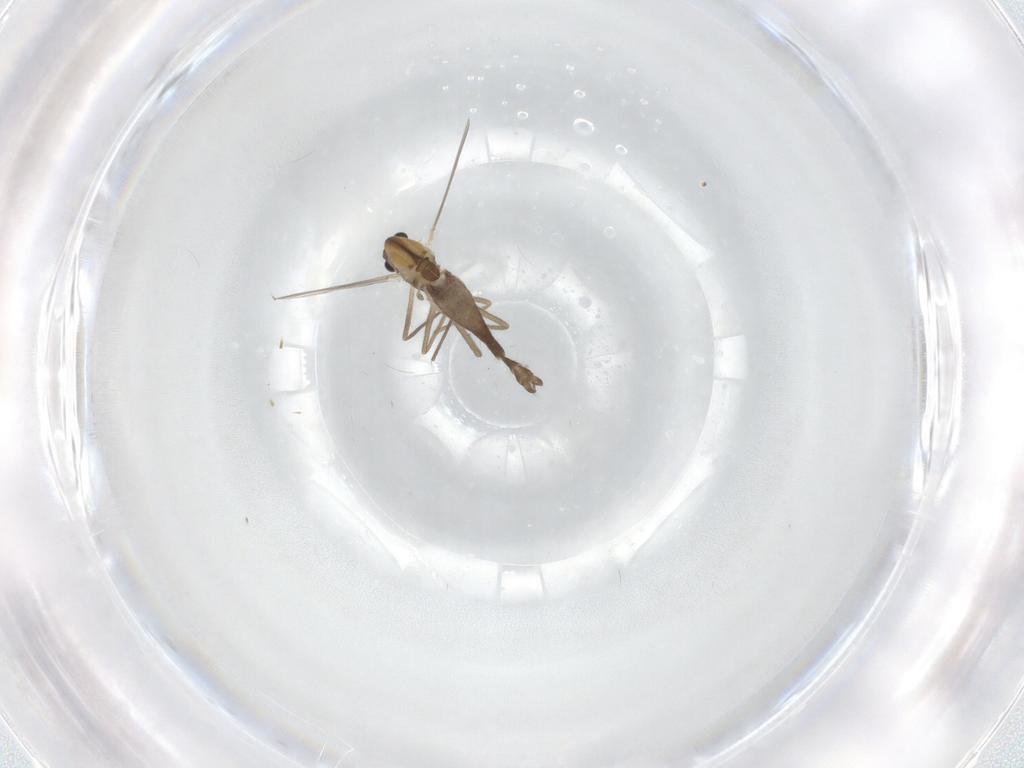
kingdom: Animalia
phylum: Arthropoda
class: Insecta
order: Diptera
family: Chironomidae
